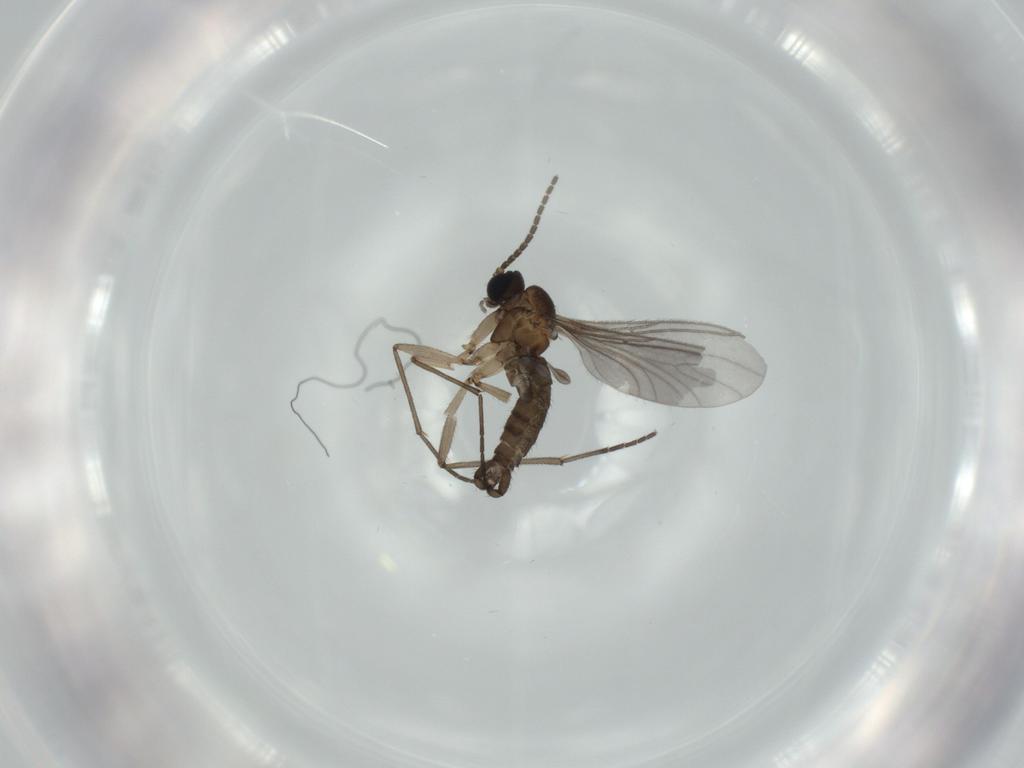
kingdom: Animalia
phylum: Arthropoda
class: Insecta
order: Diptera
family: Sciaridae
